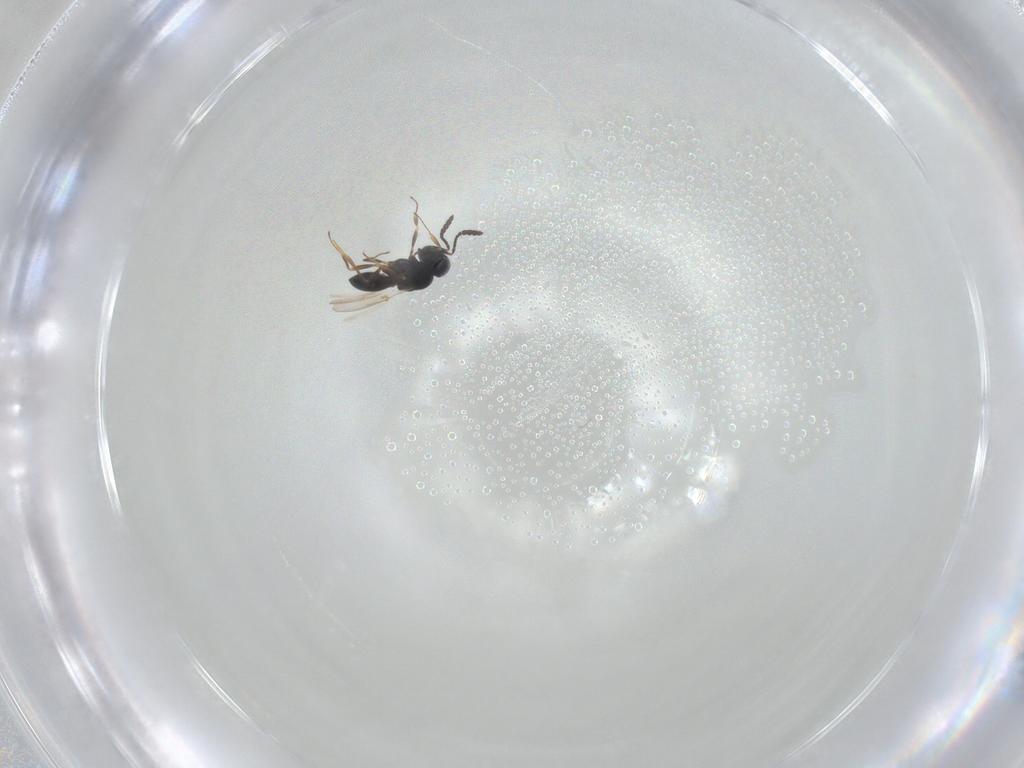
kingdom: Animalia
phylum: Arthropoda
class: Insecta
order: Hymenoptera
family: Scelionidae
